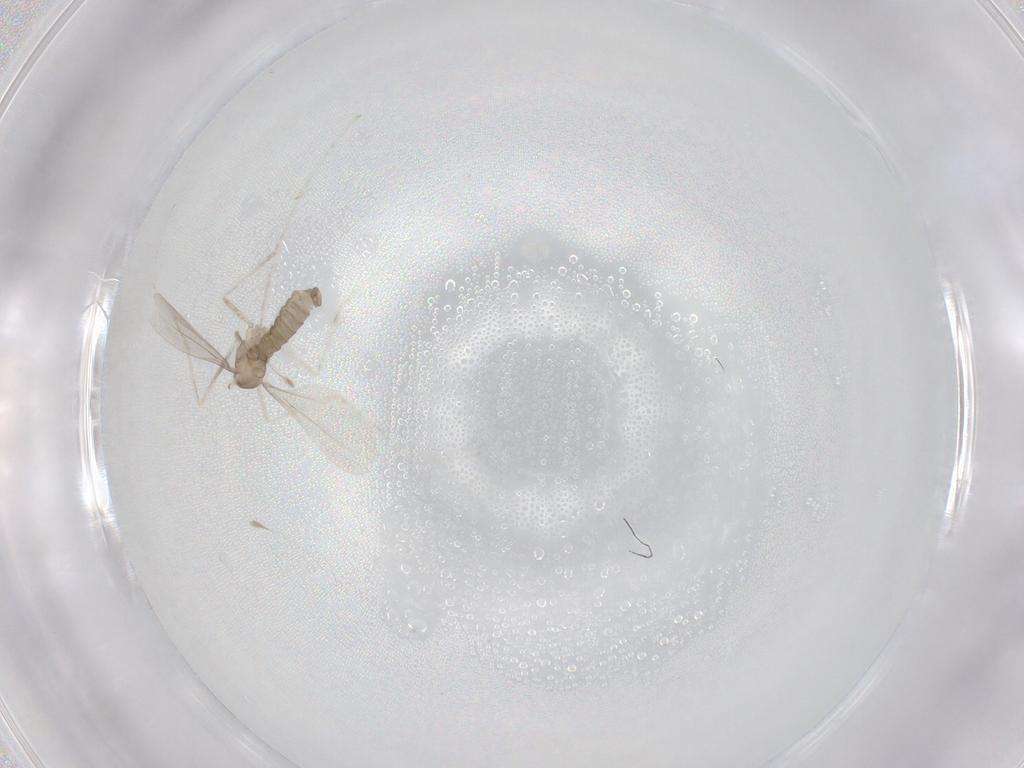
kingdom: Animalia
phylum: Arthropoda
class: Insecta
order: Diptera
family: Cecidomyiidae
